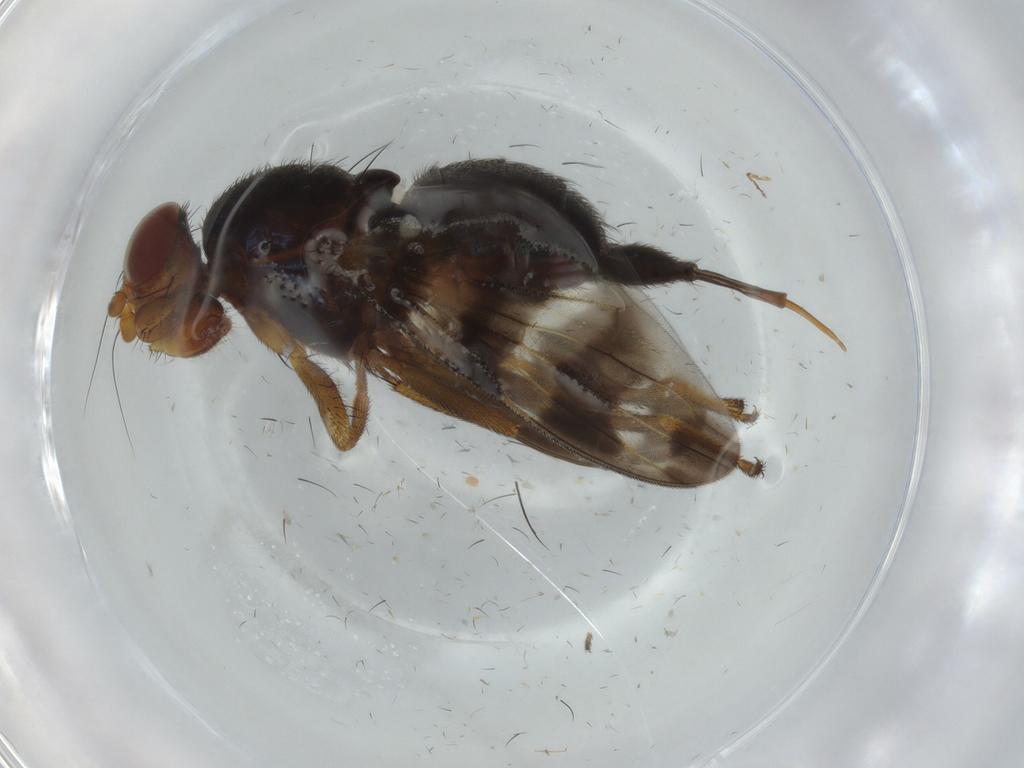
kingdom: Animalia
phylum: Arthropoda
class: Insecta
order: Diptera
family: Ulidiidae
